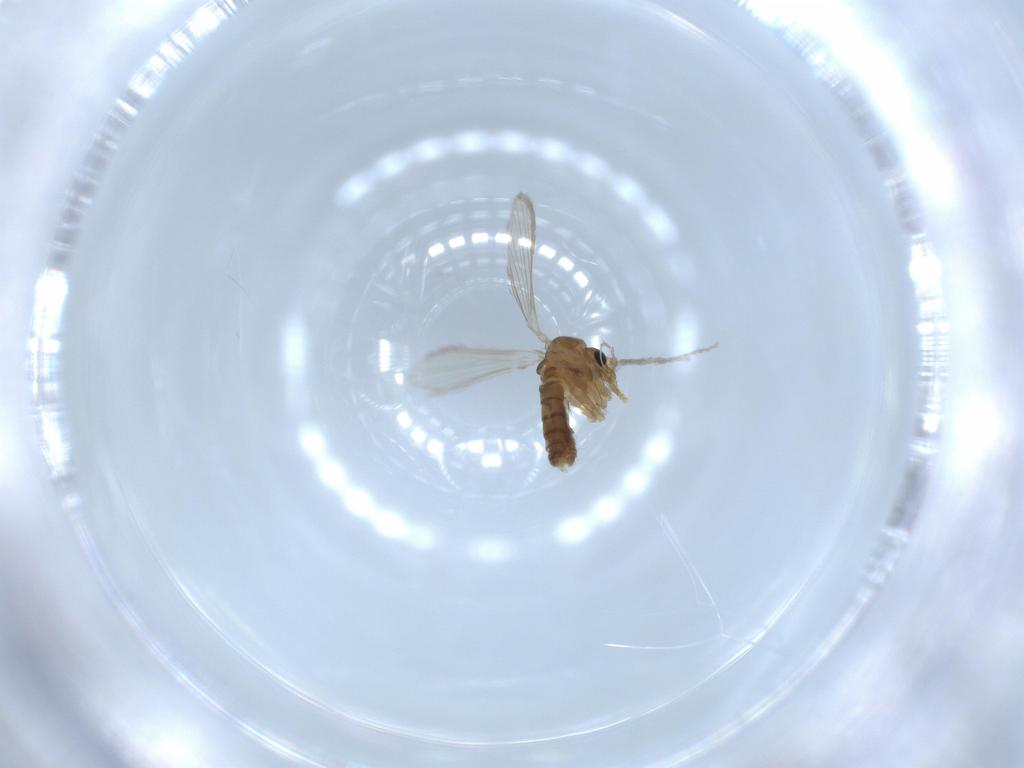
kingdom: Animalia
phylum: Arthropoda
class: Insecta
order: Diptera
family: Psychodidae
